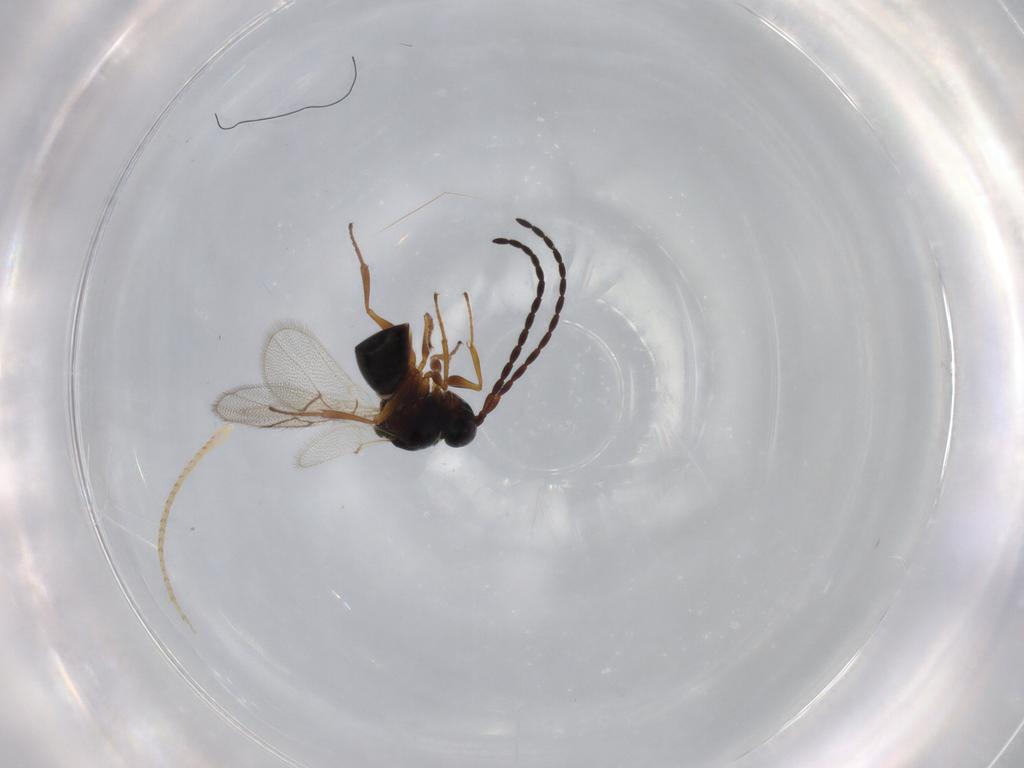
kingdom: Animalia
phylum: Arthropoda
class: Insecta
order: Hymenoptera
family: Figitidae
